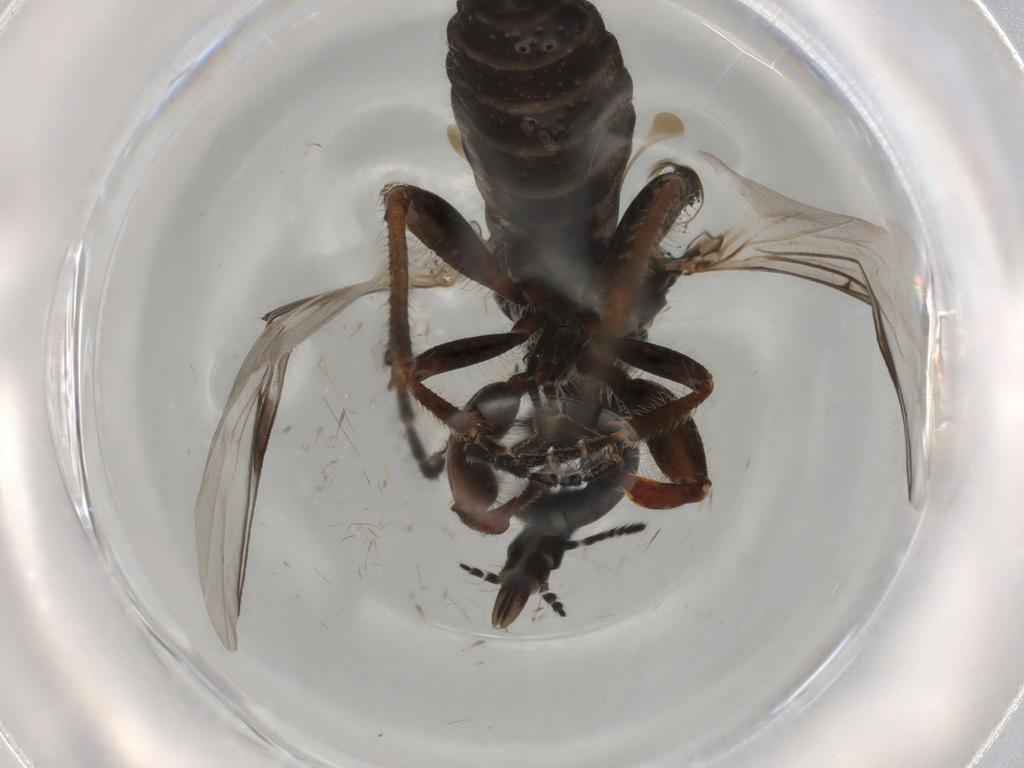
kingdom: Animalia
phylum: Arthropoda
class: Insecta
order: Diptera
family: Bibionidae
